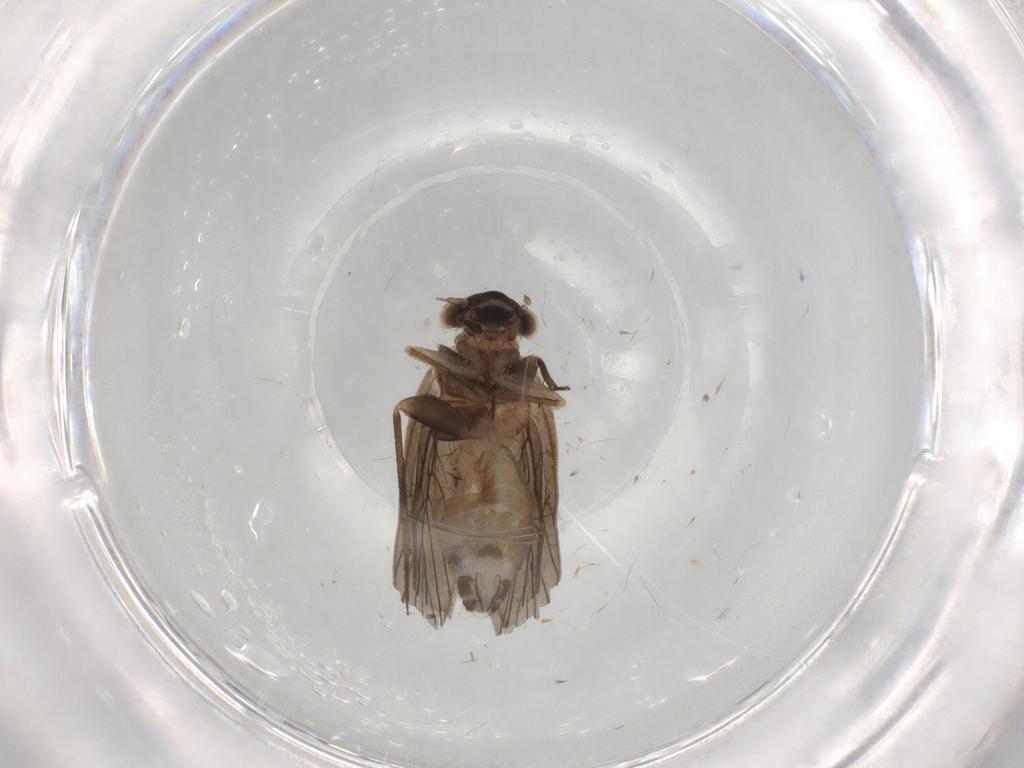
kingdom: Animalia
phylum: Arthropoda
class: Insecta
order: Psocodea
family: Lepidopsocidae
